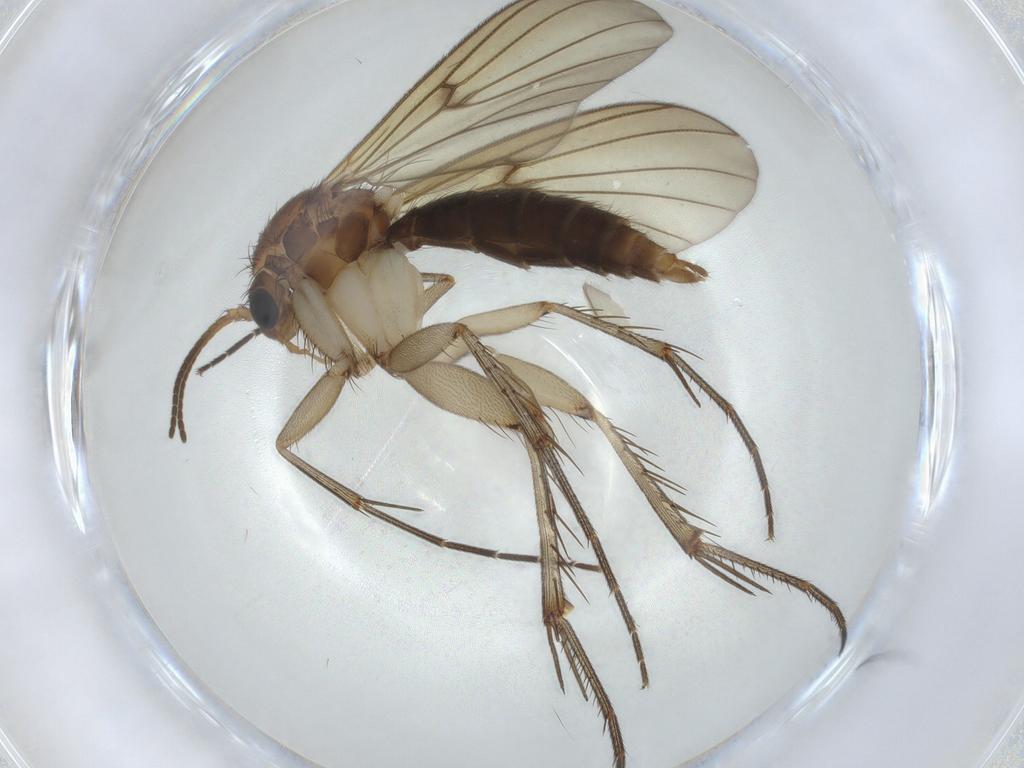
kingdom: Animalia
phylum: Arthropoda
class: Insecta
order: Diptera
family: Mycetophilidae
